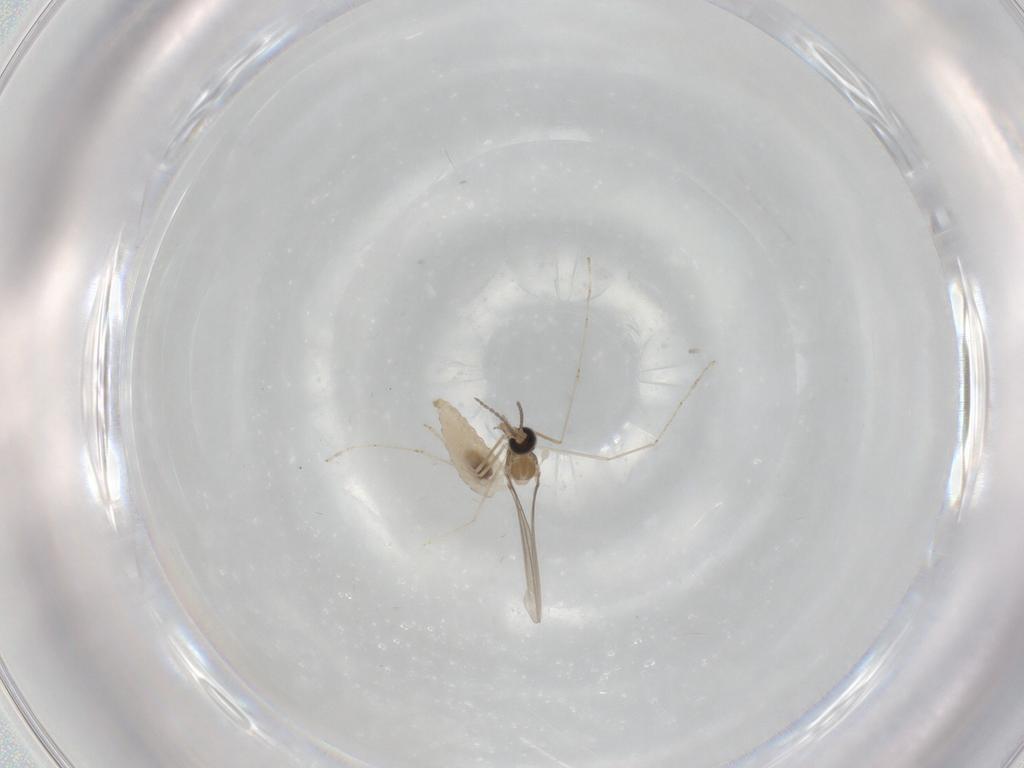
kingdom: Animalia
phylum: Arthropoda
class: Insecta
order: Diptera
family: Cecidomyiidae
